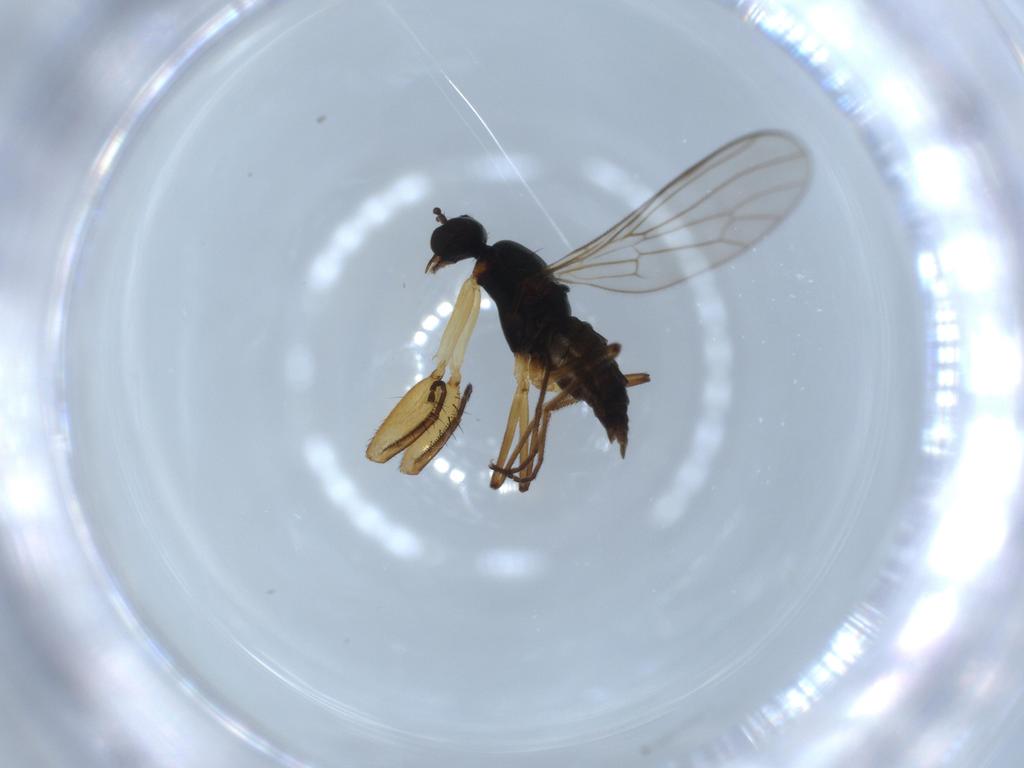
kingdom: Animalia
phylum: Arthropoda
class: Insecta
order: Diptera
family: Empididae
